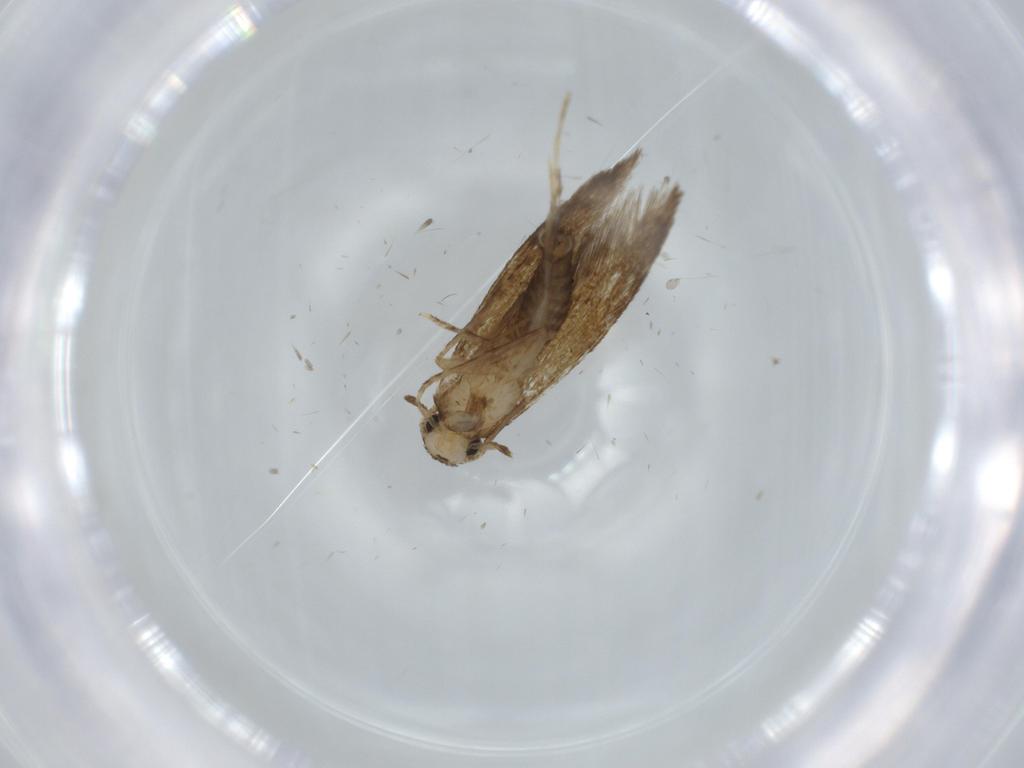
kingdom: Animalia
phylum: Arthropoda
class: Insecta
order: Lepidoptera
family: Tineidae
